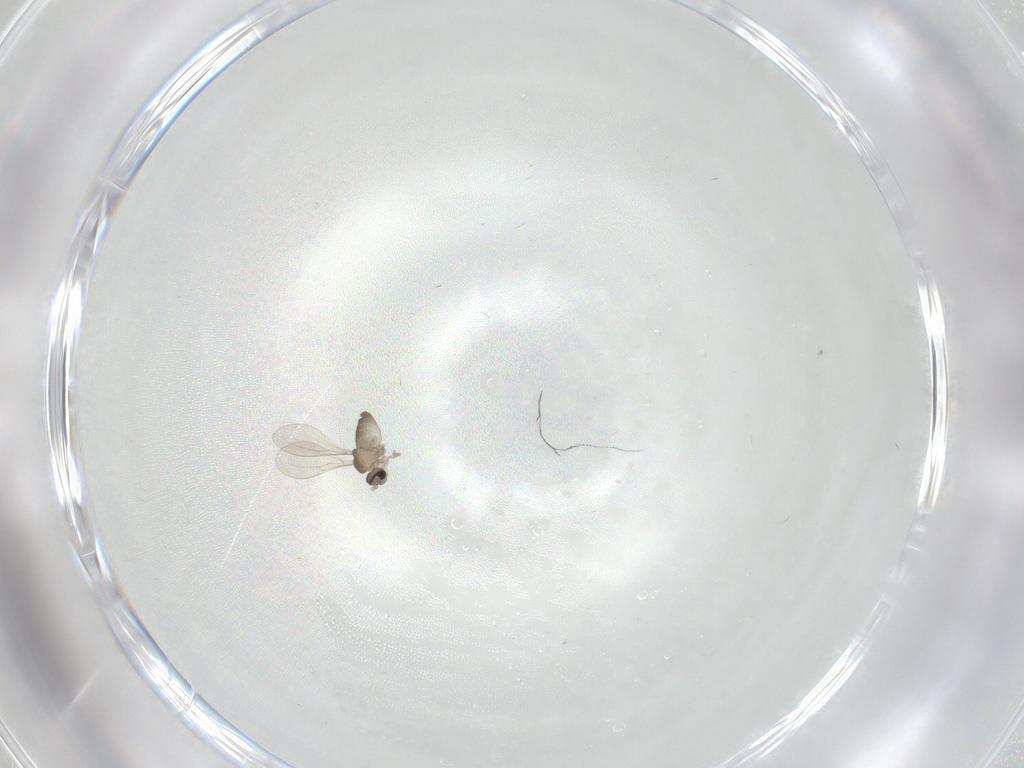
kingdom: Animalia
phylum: Arthropoda
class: Insecta
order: Diptera
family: Cecidomyiidae
